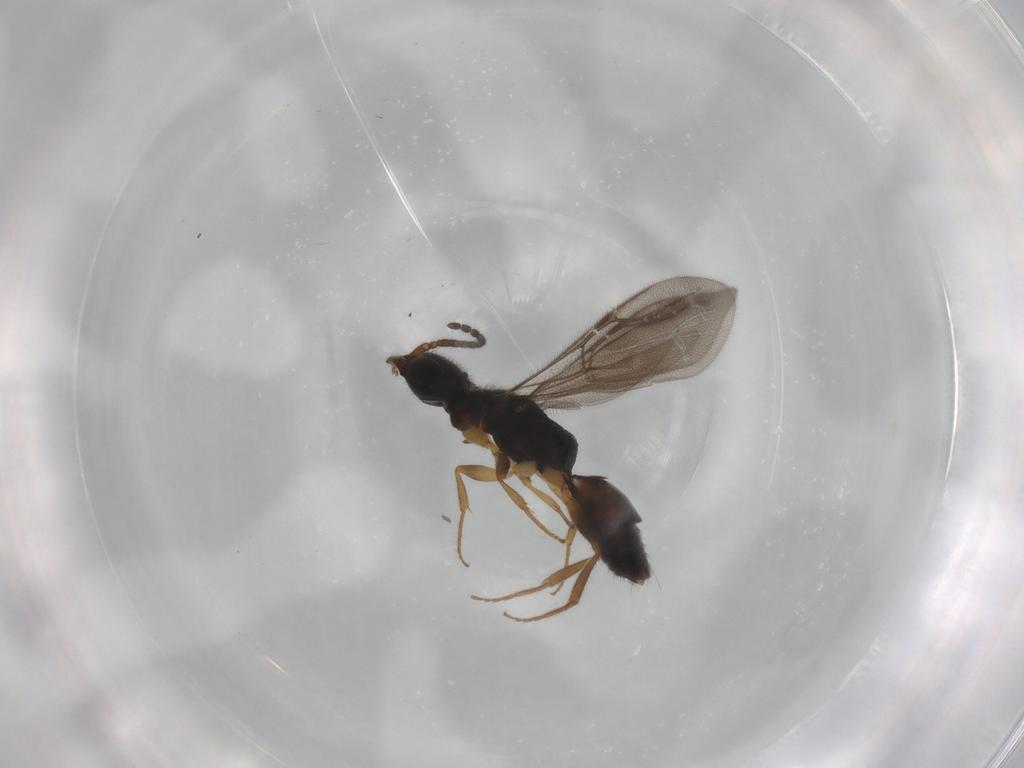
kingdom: Animalia
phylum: Arthropoda
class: Insecta
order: Hymenoptera
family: Bethylidae
